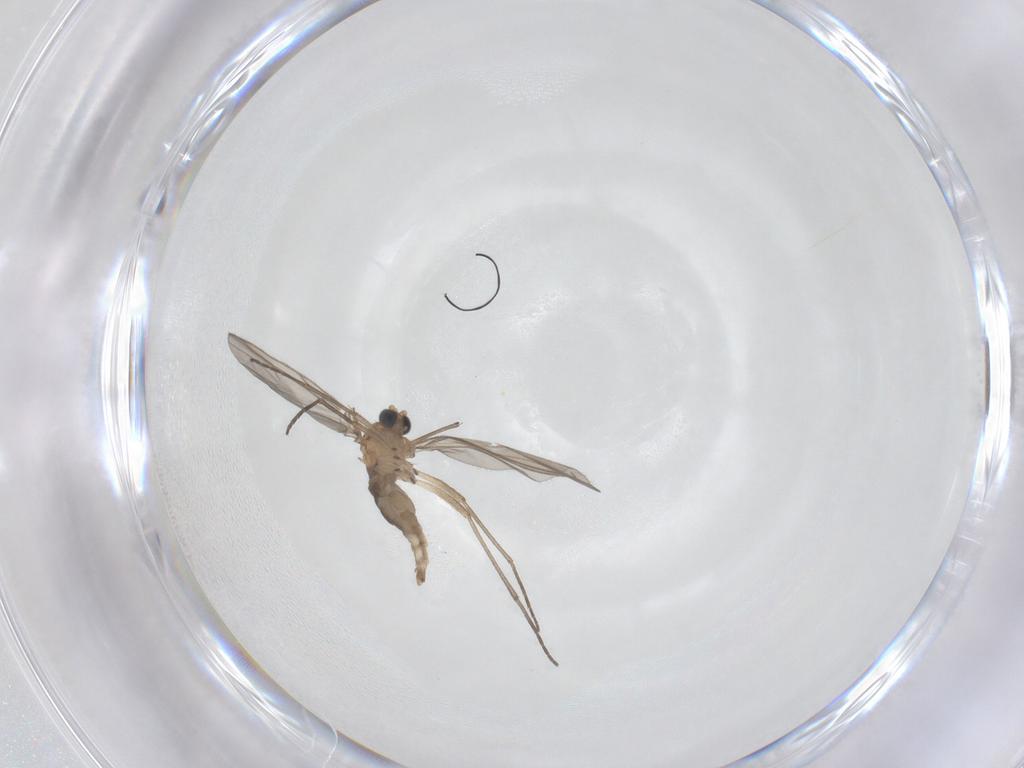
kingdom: Animalia
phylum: Arthropoda
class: Insecta
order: Diptera
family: Sciaridae
